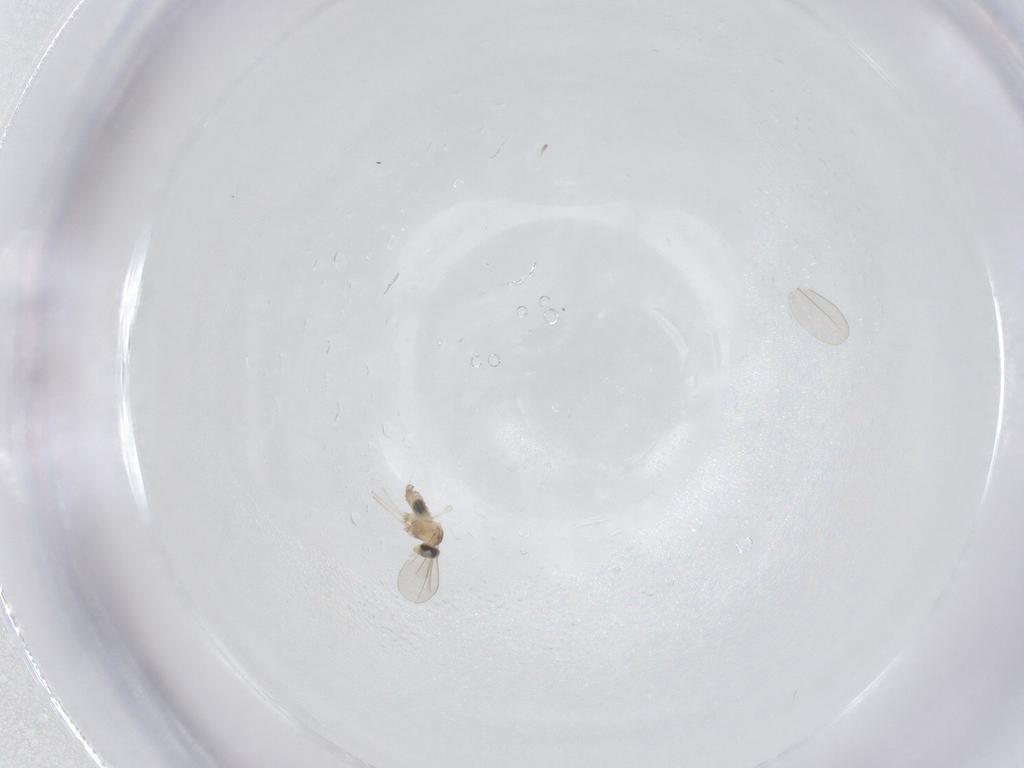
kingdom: Animalia
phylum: Arthropoda
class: Insecta
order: Diptera
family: Cecidomyiidae
